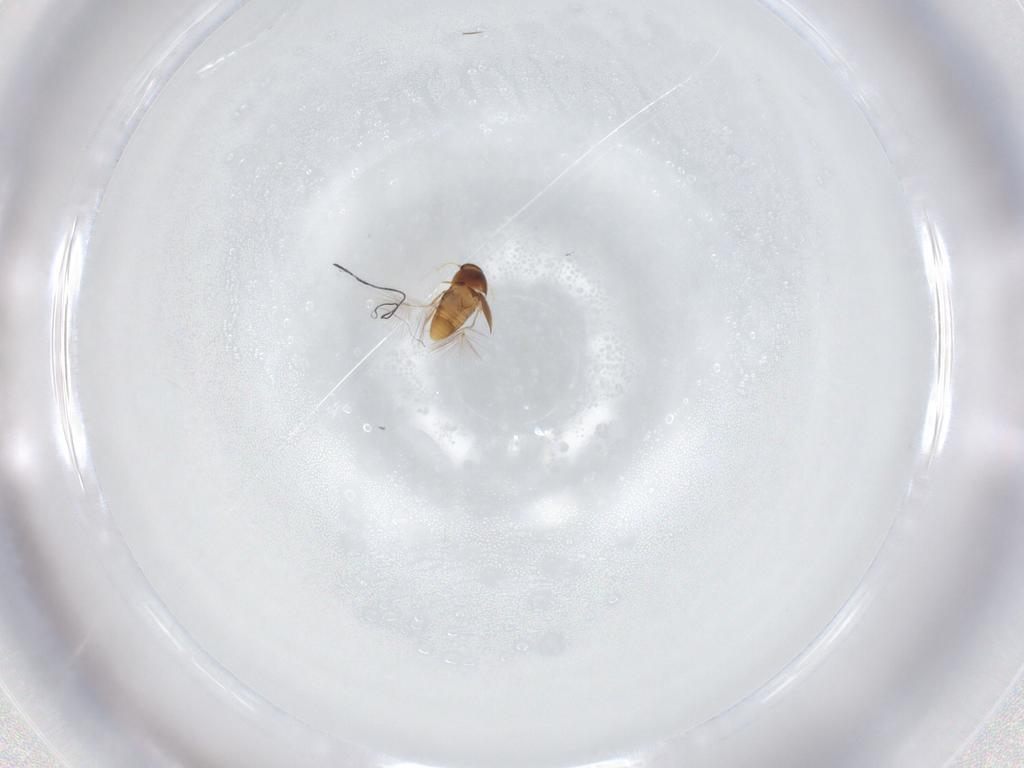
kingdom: Animalia
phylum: Arthropoda
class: Insecta
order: Coleoptera
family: Ptiliidae
